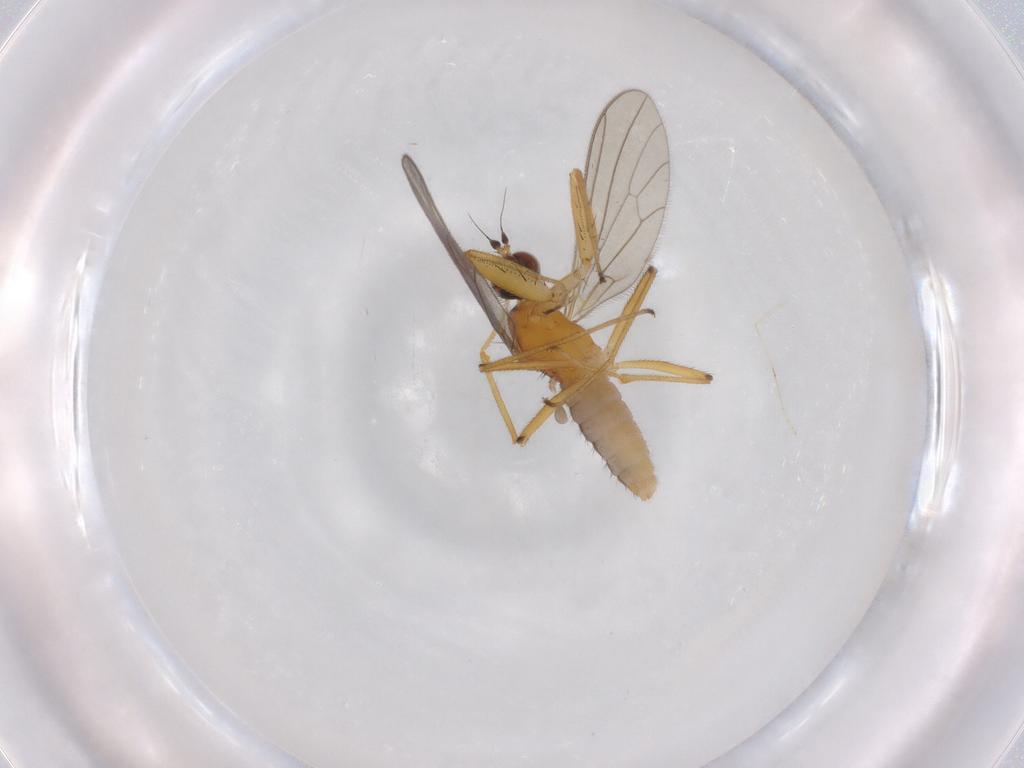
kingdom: Animalia
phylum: Arthropoda
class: Insecta
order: Diptera
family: Empididae
